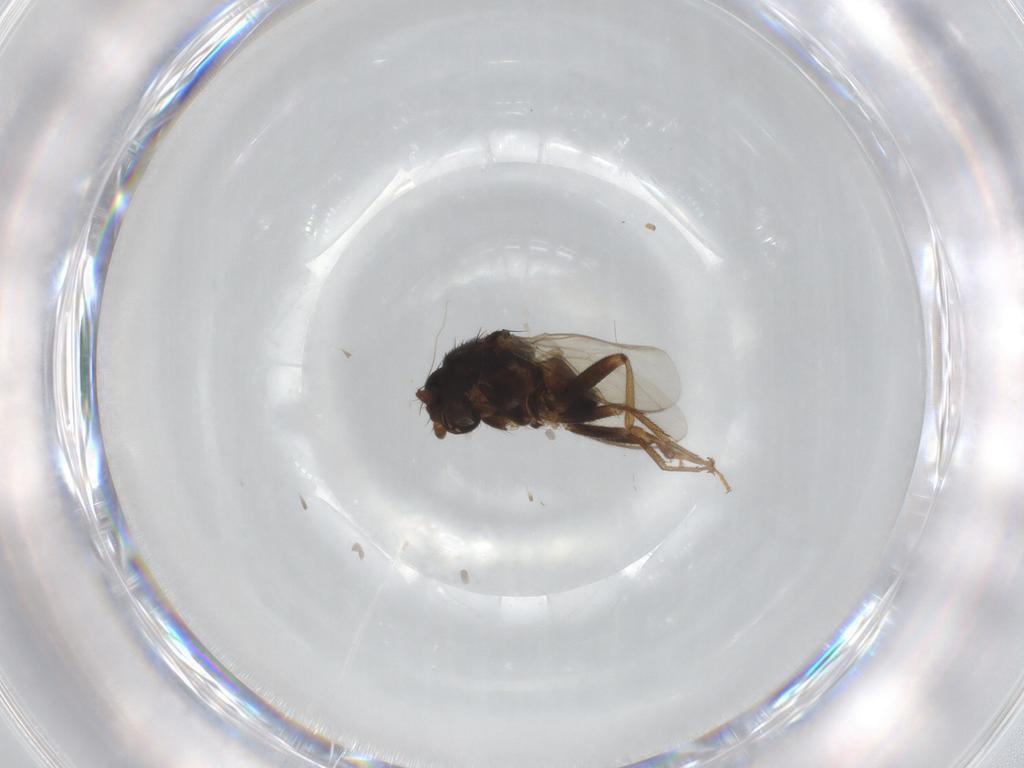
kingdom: Animalia
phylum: Arthropoda
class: Insecta
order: Diptera
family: Sphaeroceridae
